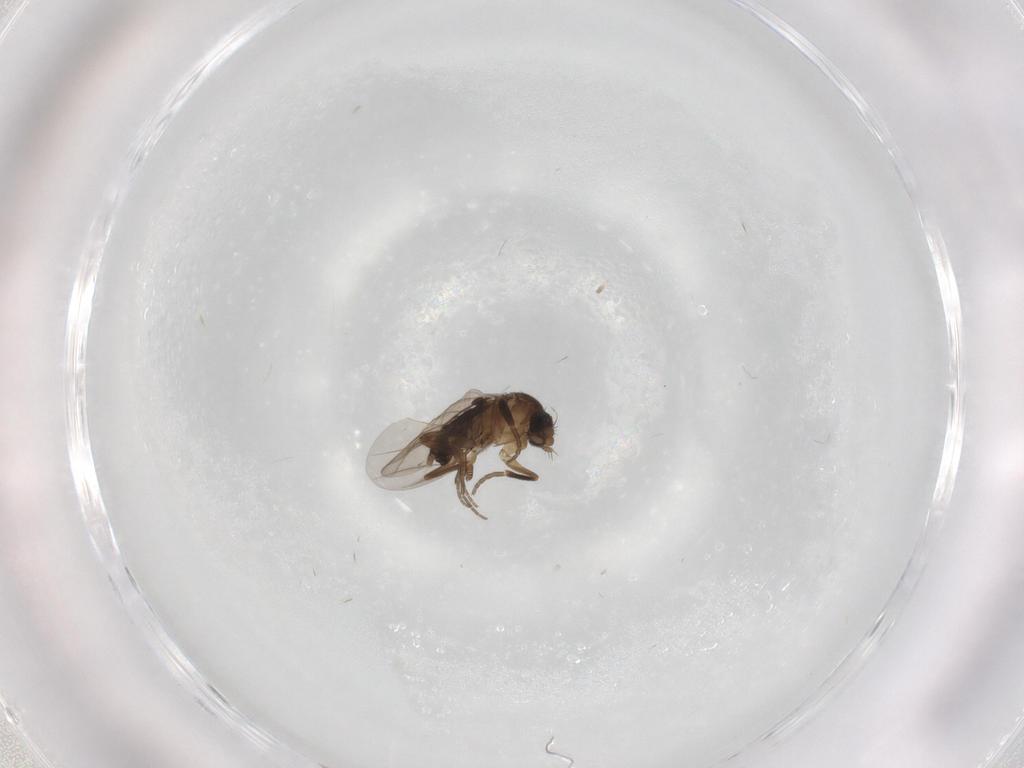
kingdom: Animalia
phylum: Arthropoda
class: Insecta
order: Diptera
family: Phoridae
